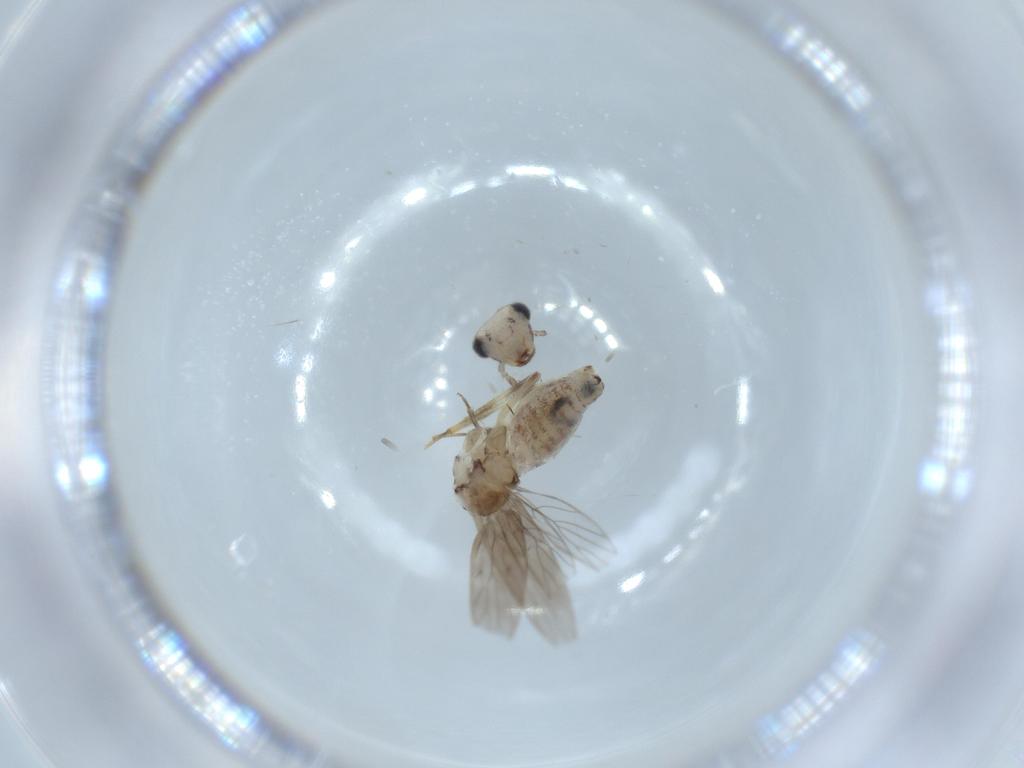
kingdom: Animalia
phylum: Arthropoda
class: Insecta
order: Psocodea
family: Lepidopsocidae
